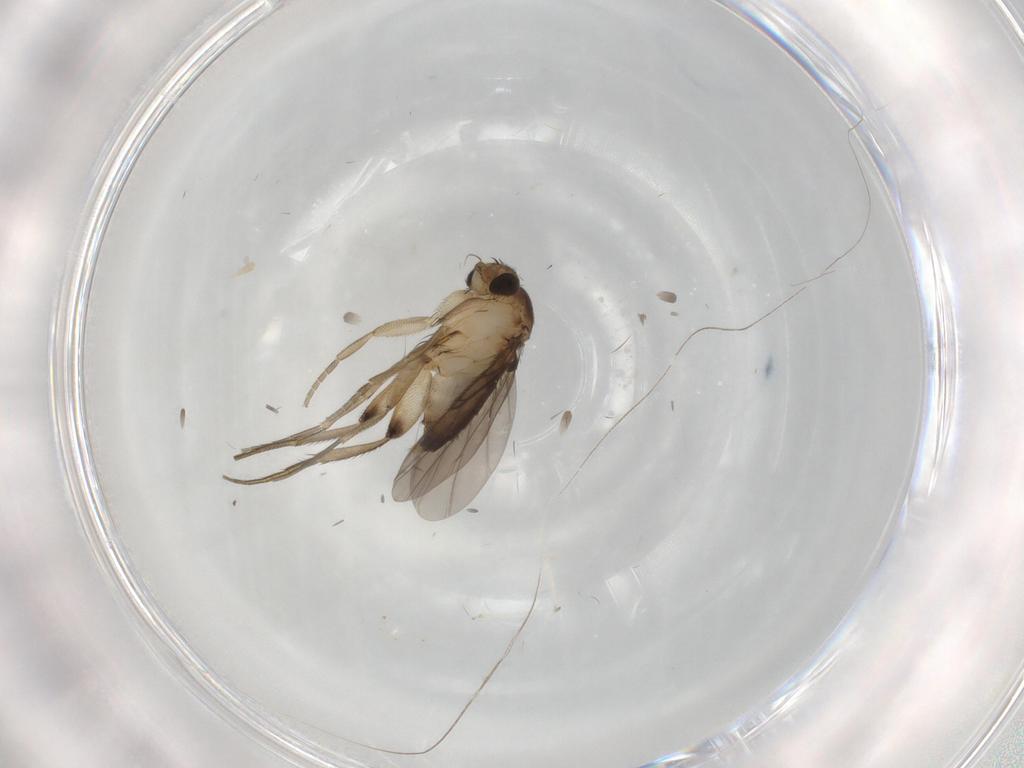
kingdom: Animalia
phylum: Arthropoda
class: Insecta
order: Diptera
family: Phoridae
